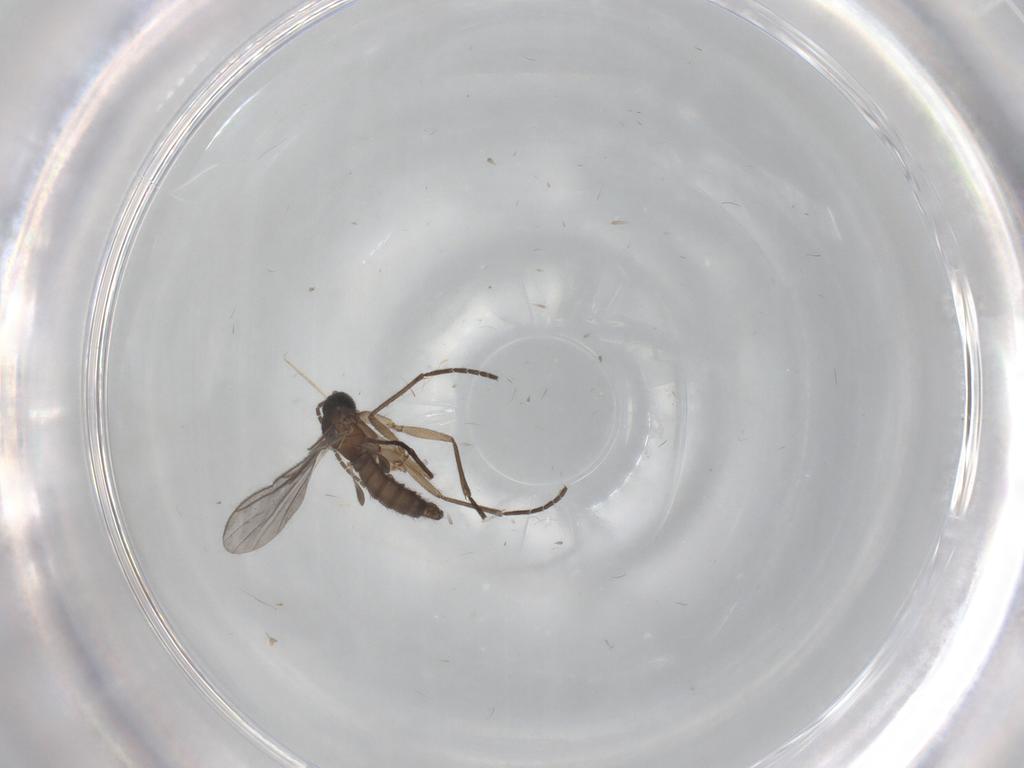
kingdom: Animalia
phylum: Arthropoda
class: Insecta
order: Diptera
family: Sciaridae
